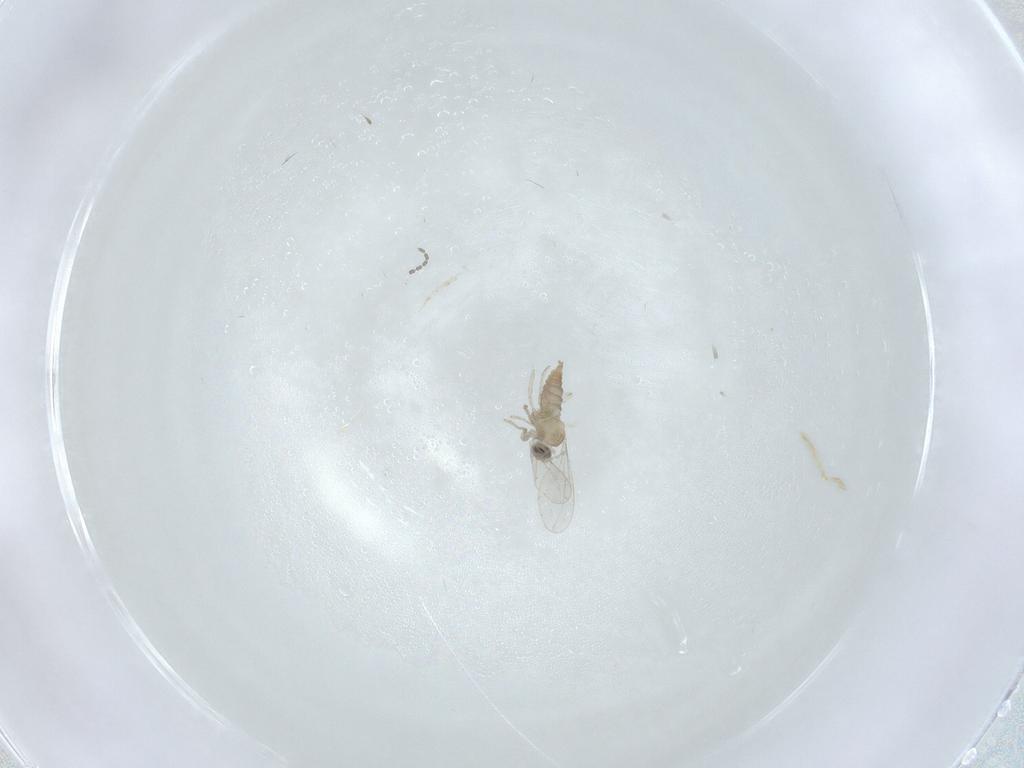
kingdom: Animalia
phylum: Arthropoda
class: Insecta
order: Diptera
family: Cecidomyiidae
